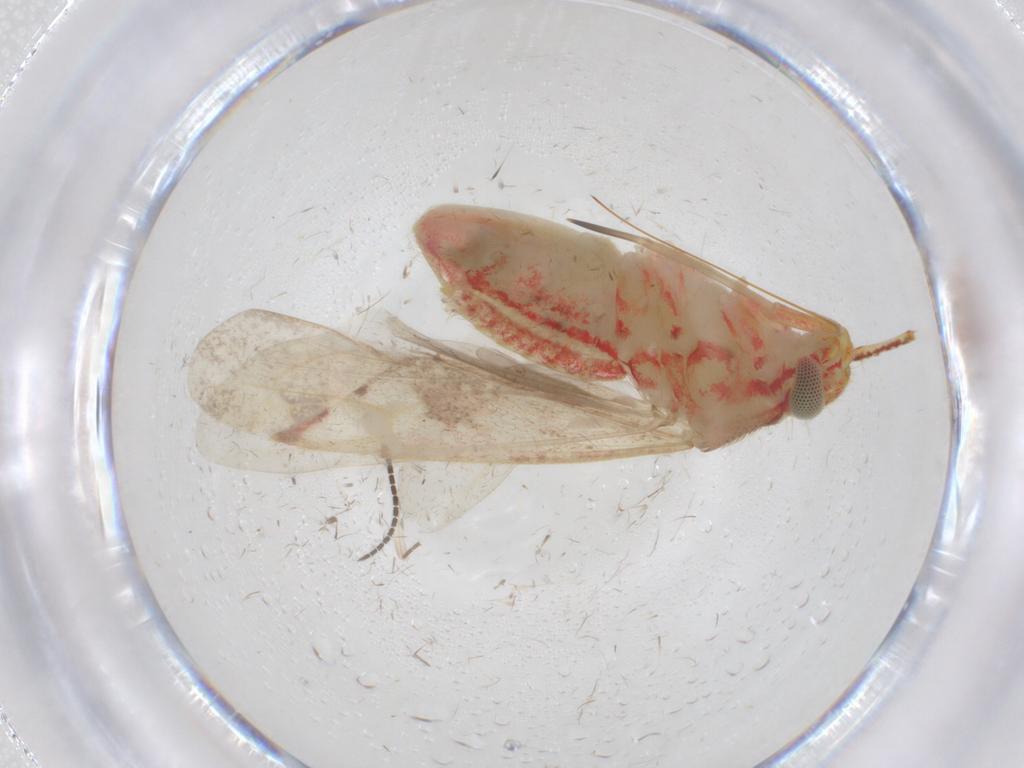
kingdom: Animalia
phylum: Arthropoda
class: Insecta
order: Hemiptera
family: Miridae
